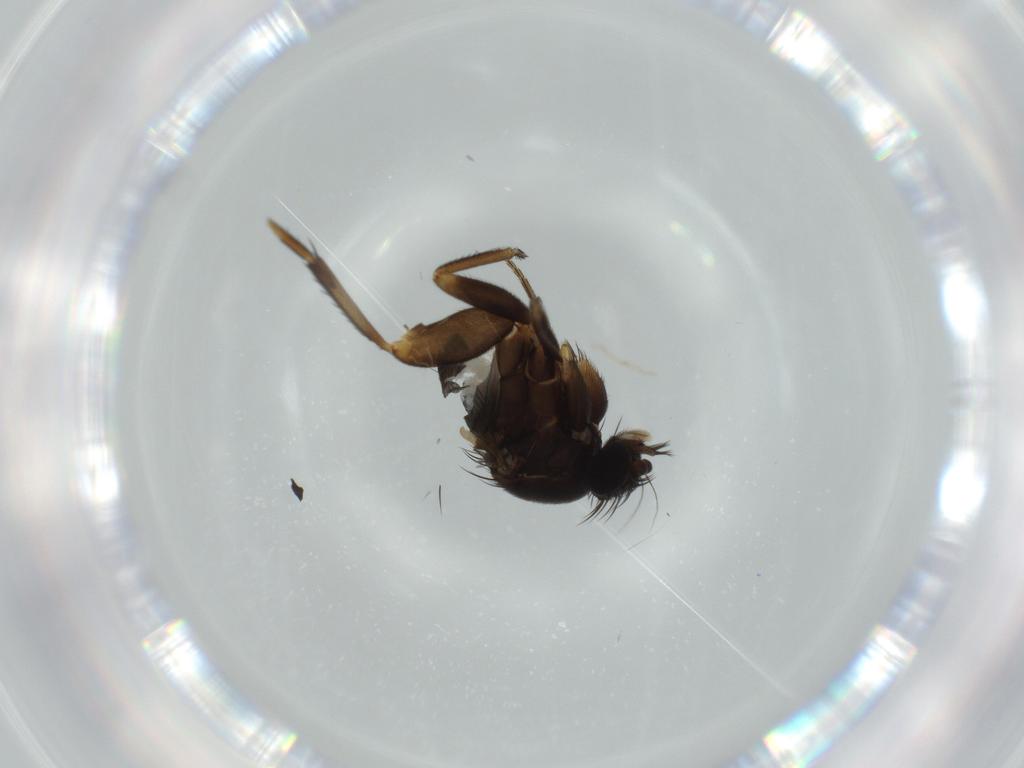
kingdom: Animalia
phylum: Arthropoda
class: Insecta
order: Diptera
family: Phoridae
